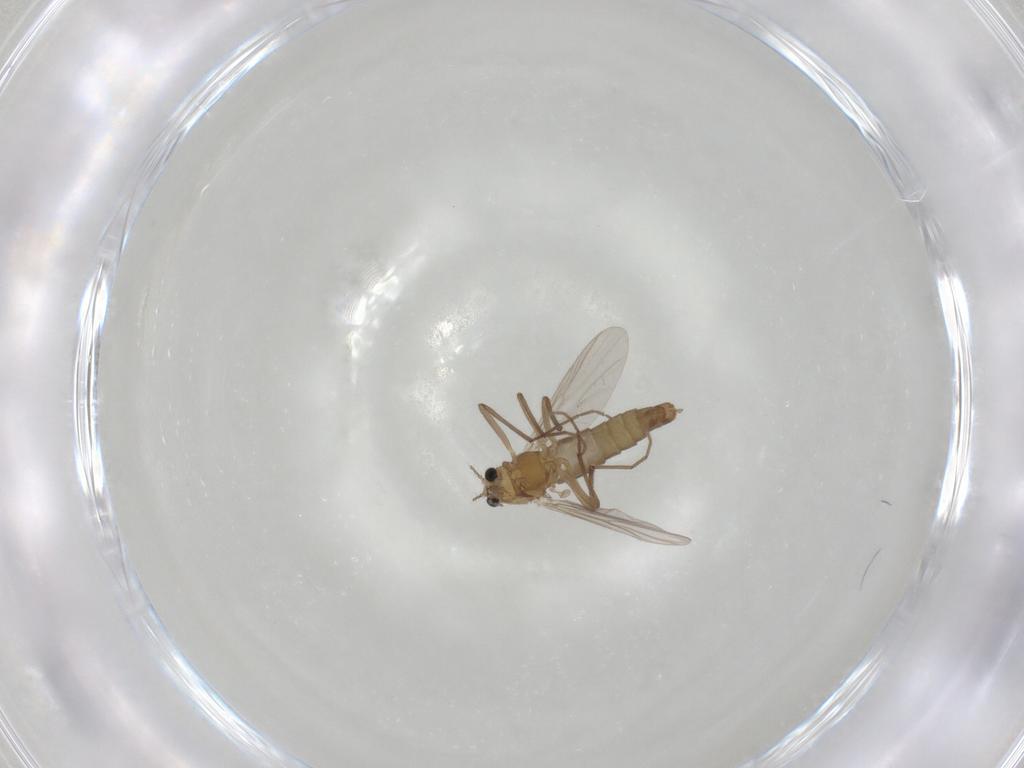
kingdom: Animalia
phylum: Arthropoda
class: Insecta
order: Diptera
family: Chironomidae
